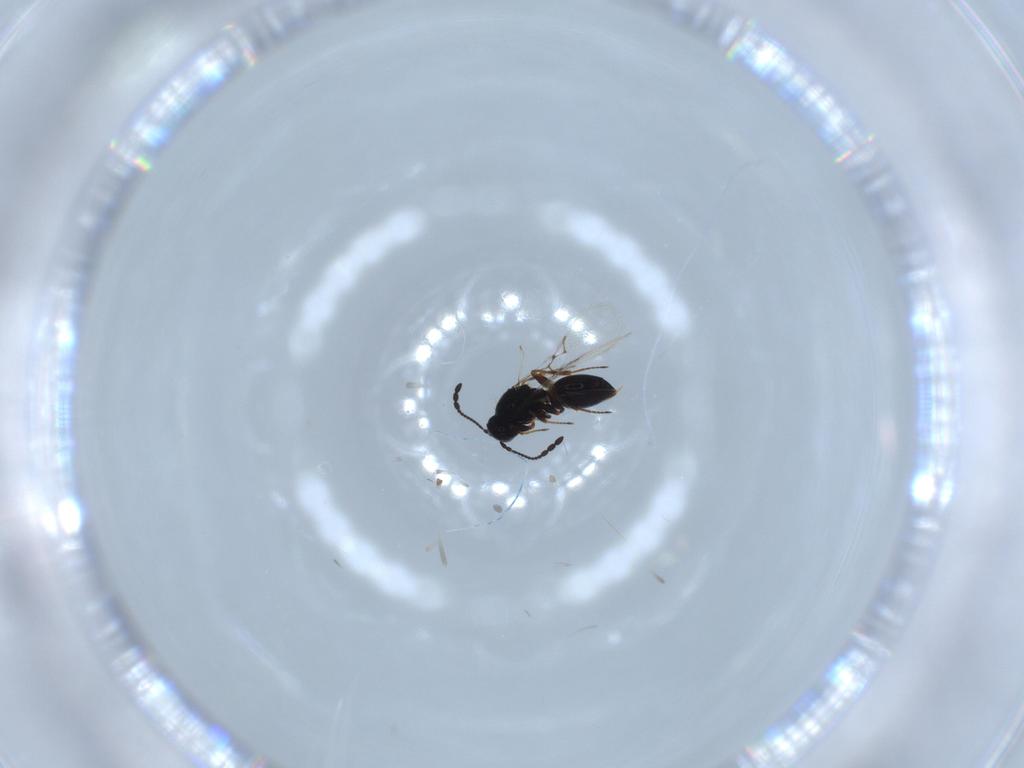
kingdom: Animalia
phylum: Arthropoda
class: Insecta
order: Hymenoptera
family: Figitidae
